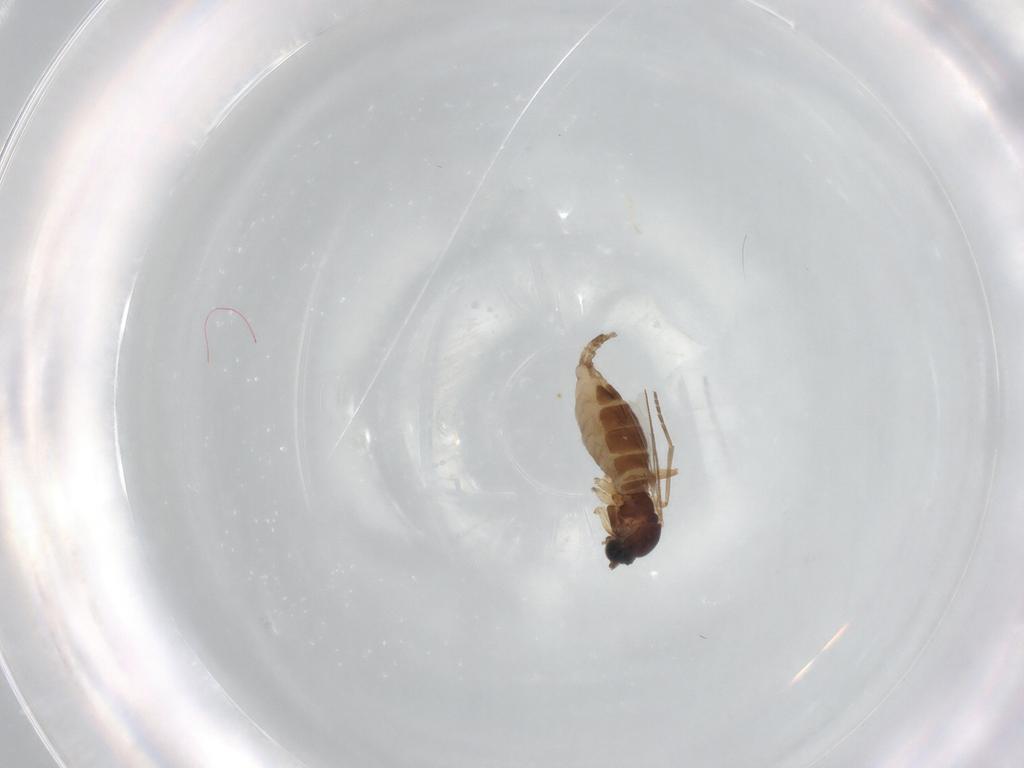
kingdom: Animalia
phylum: Arthropoda
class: Insecta
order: Diptera
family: Sciaridae
